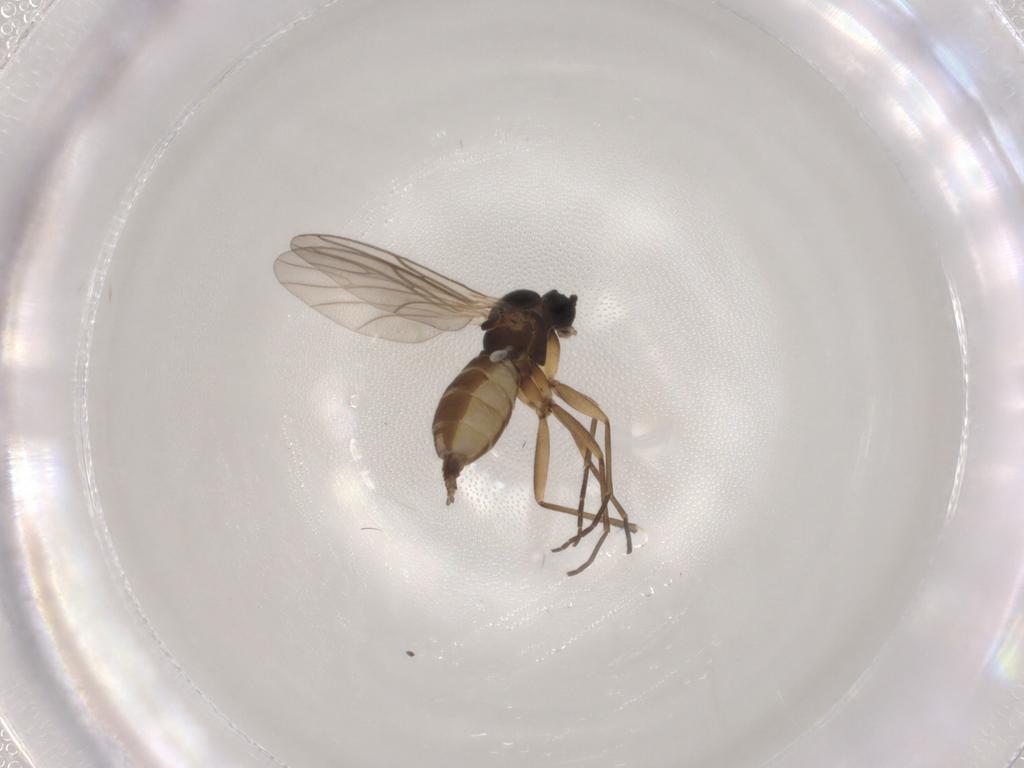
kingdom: Animalia
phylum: Arthropoda
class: Insecta
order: Diptera
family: Sciaridae
